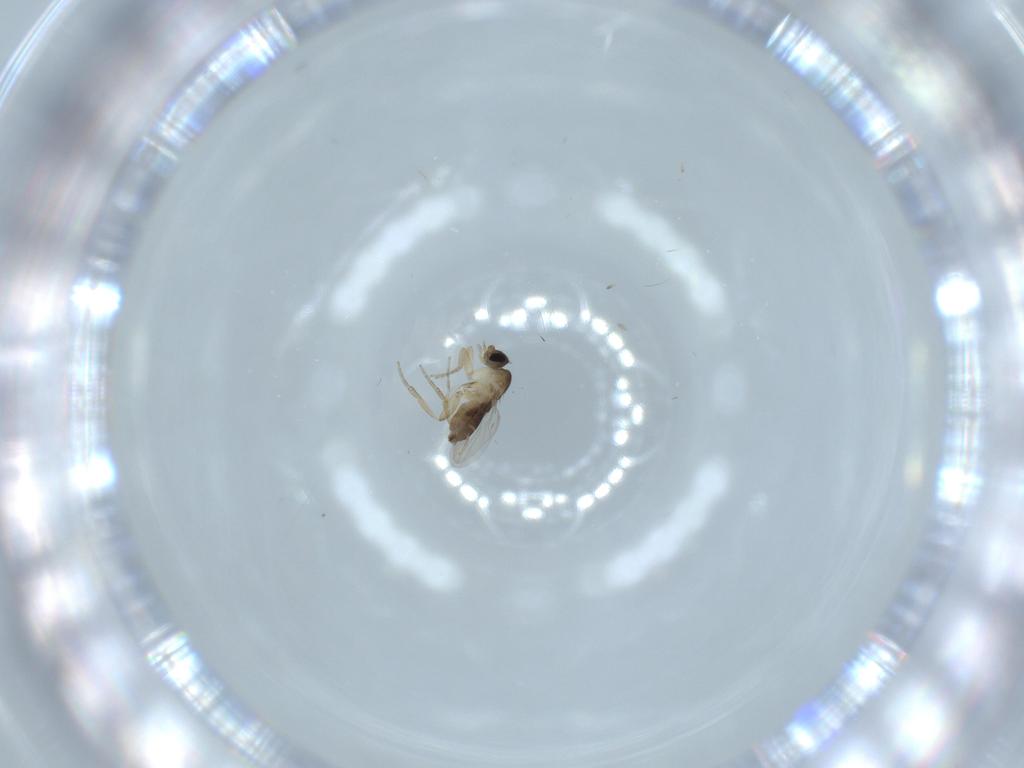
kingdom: Animalia
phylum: Arthropoda
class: Insecta
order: Diptera
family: Phoridae
